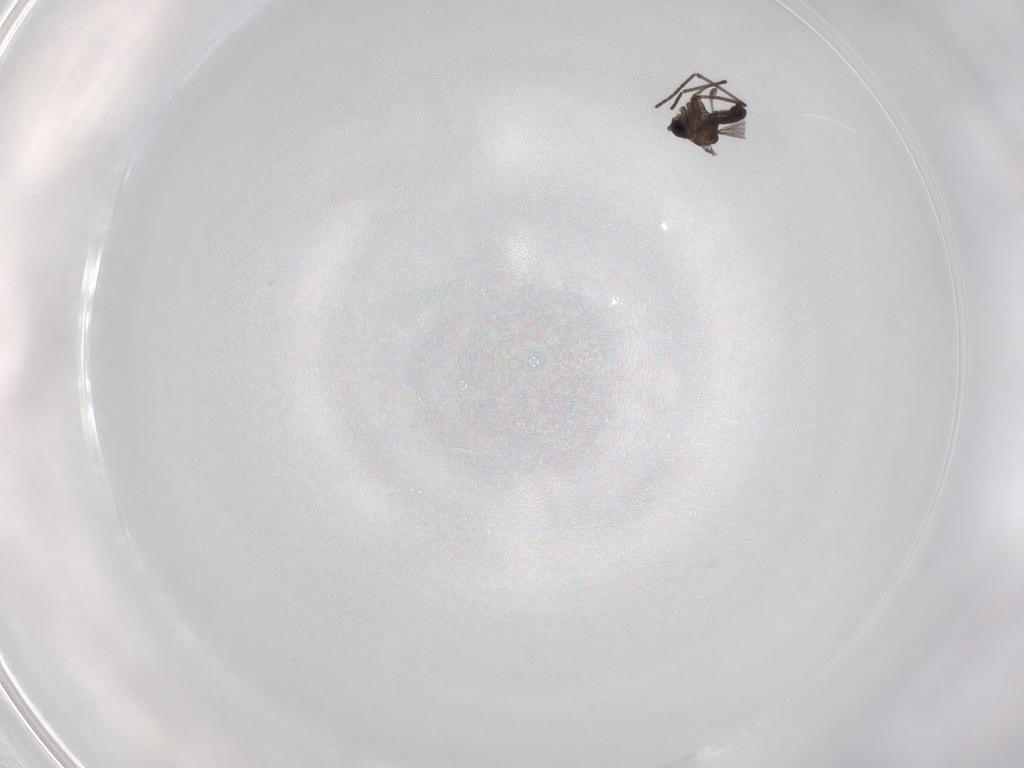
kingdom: Animalia
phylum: Arthropoda
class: Insecta
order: Diptera
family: Sciaridae
